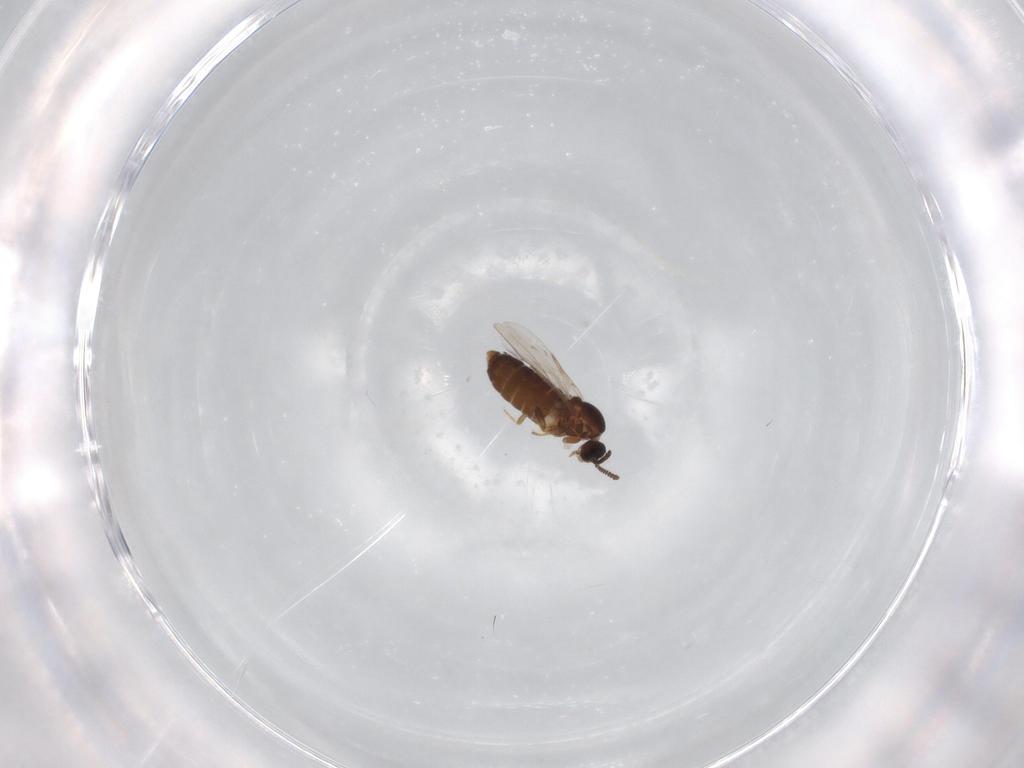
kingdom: Animalia
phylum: Arthropoda
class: Insecta
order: Diptera
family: Scatopsidae
